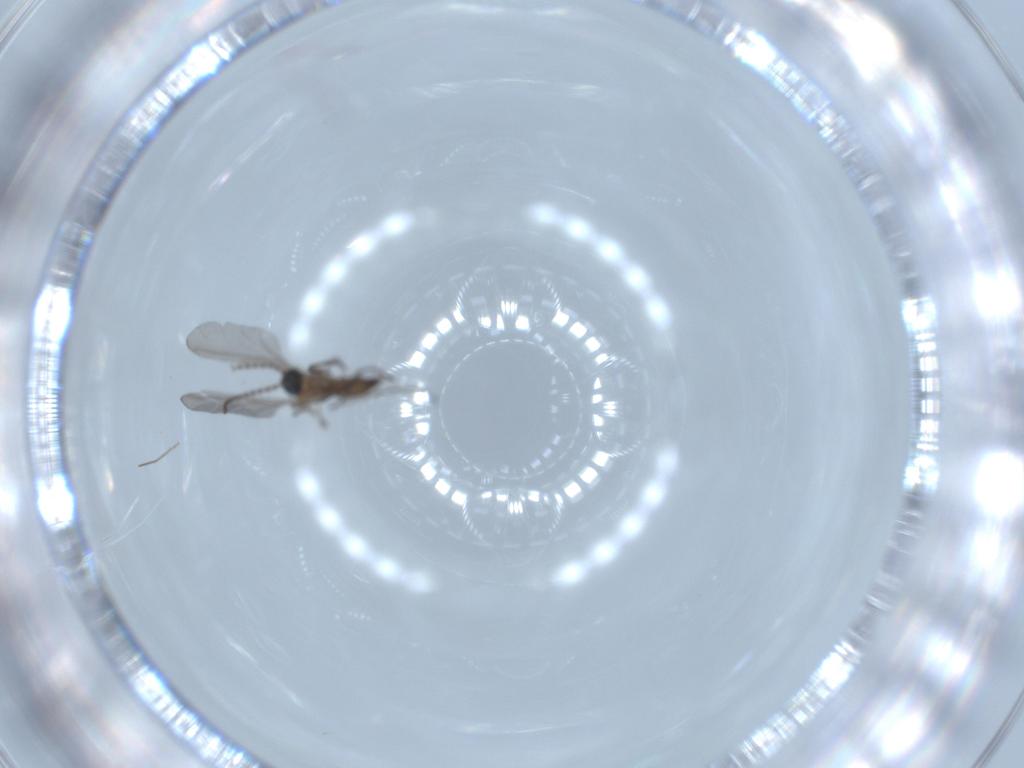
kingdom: Animalia
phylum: Arthropoda
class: Insecta
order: Diptera
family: Sciaridae
